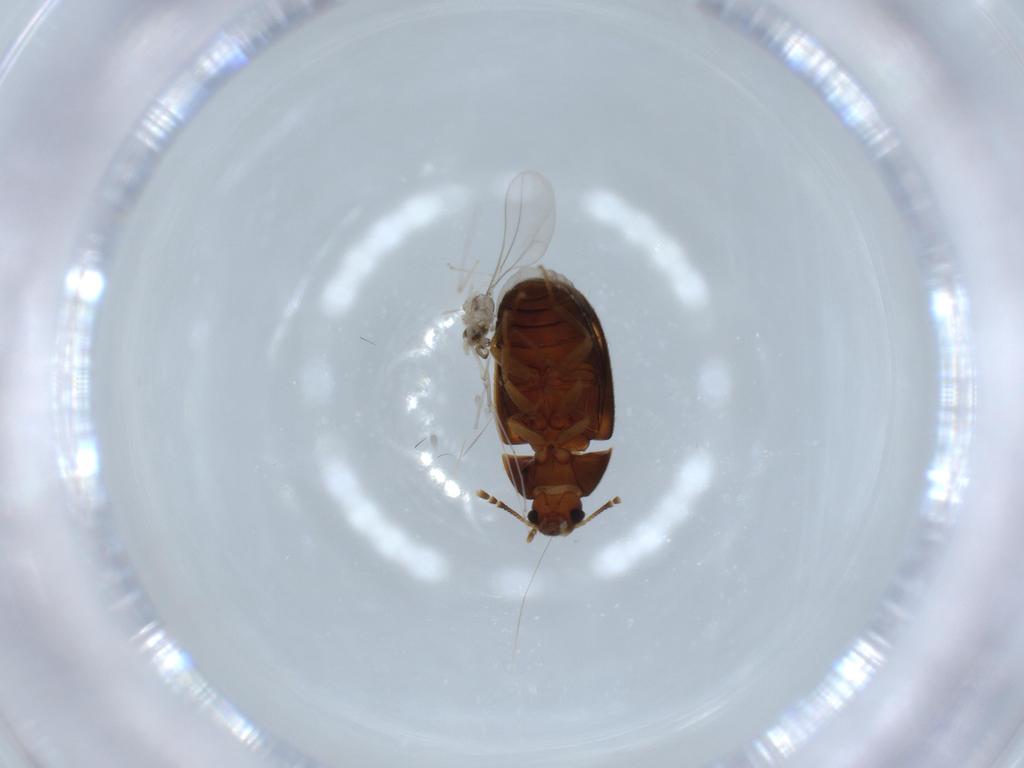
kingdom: Animalia
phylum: Arthropoda
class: Insecta
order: Coleoptera
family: Mycetophagidae
